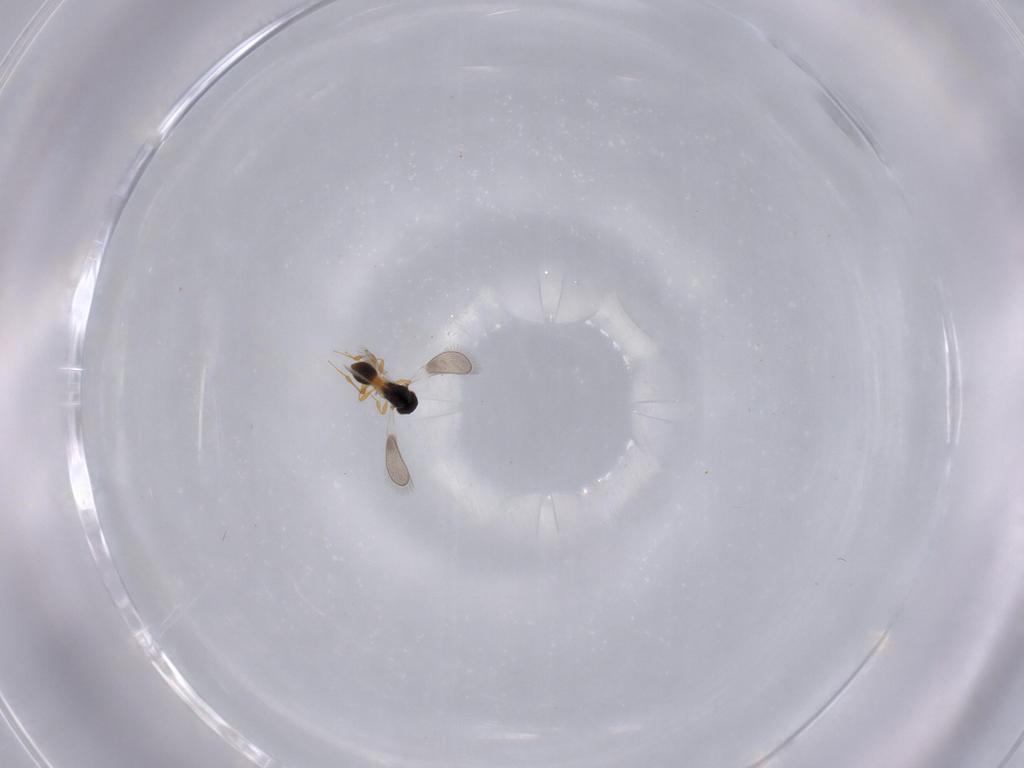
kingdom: Animalia
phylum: Arthropoda
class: Insecta
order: Hymenoptera
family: Platygastridae
